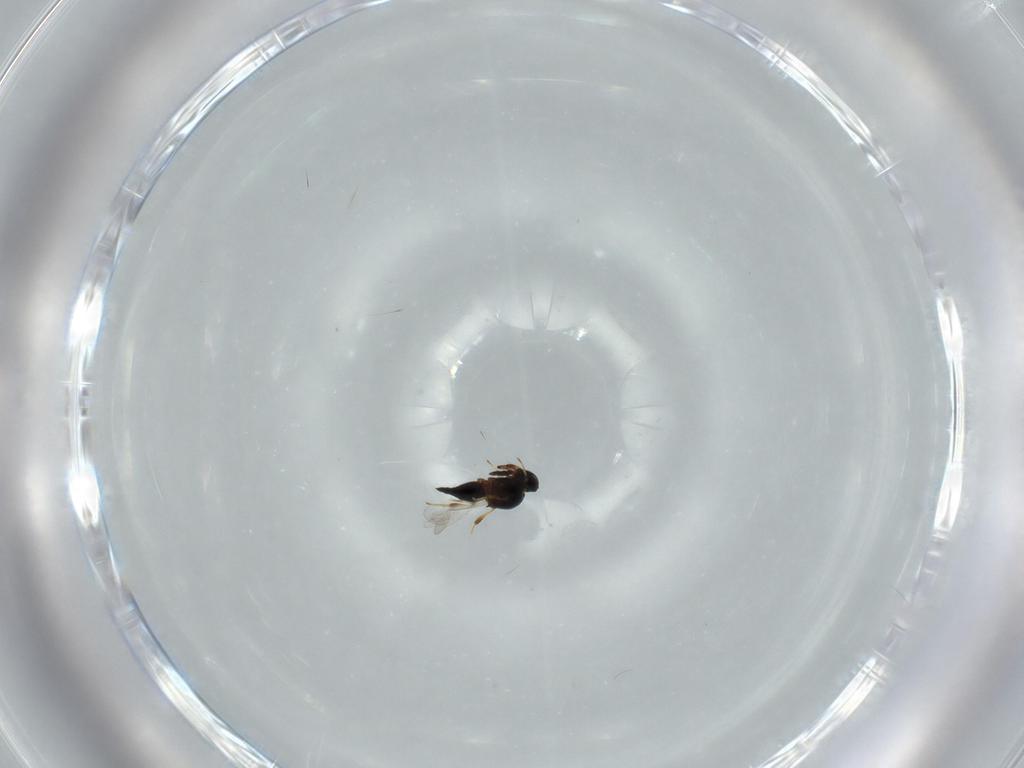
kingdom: Animalia
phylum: Arthropoda
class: Insecta
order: Hymenoptera
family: Platygastridae
